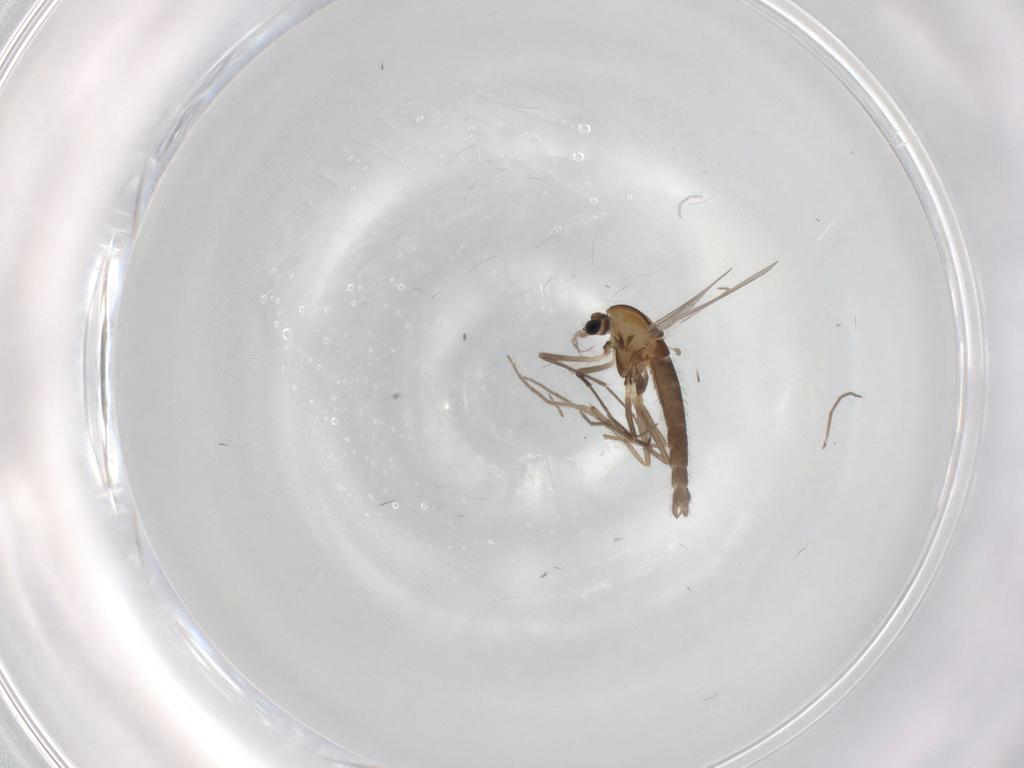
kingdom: Animalia
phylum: Arthropoda
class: Insecta
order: Diptera
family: Chironomidae
